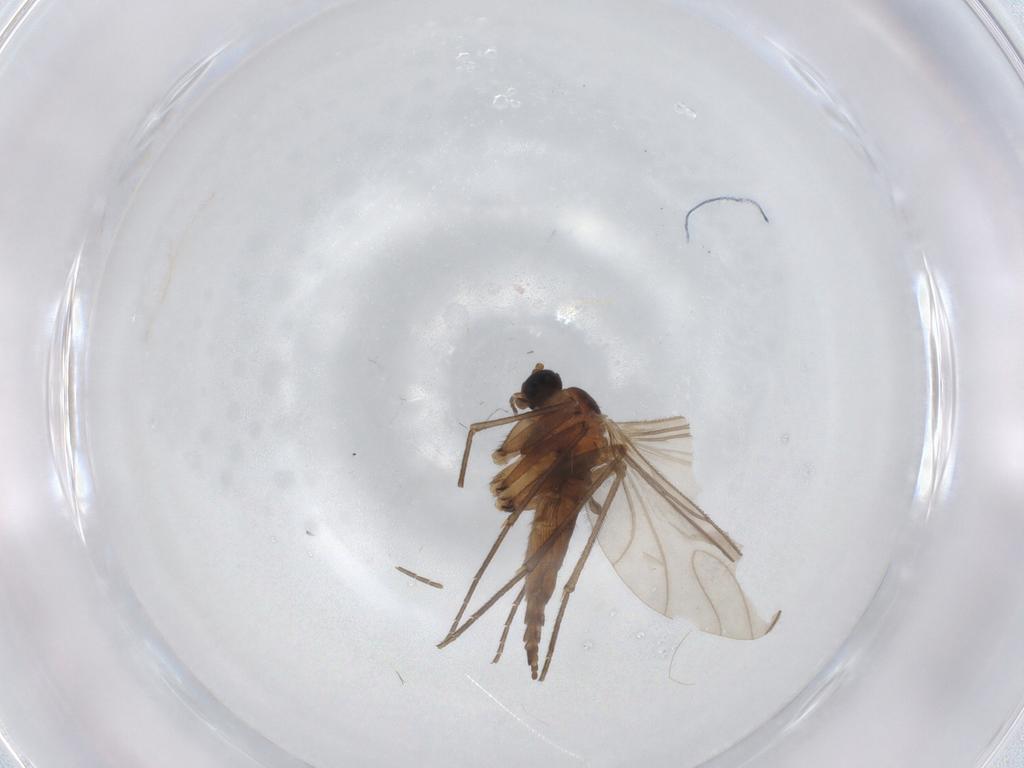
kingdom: Animalia
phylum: Arthropoda
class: Insecta
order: Diptera
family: Sciaridae
